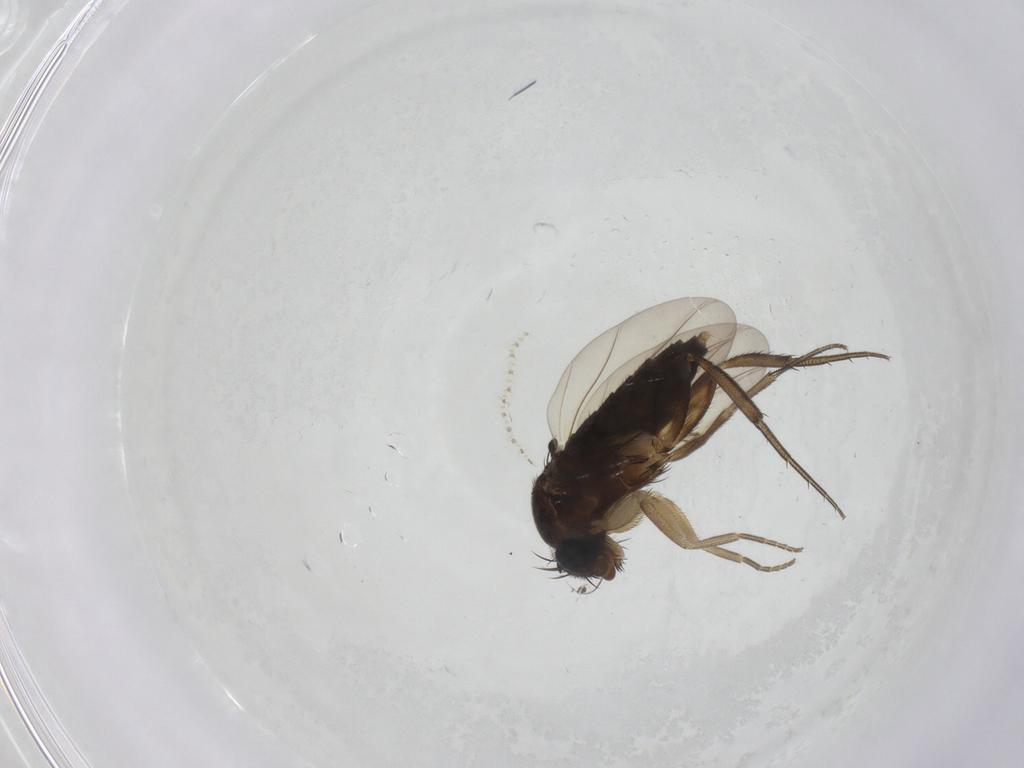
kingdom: Animalia
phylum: Arthropoda
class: Insecta
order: Diptera
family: Phoridae
